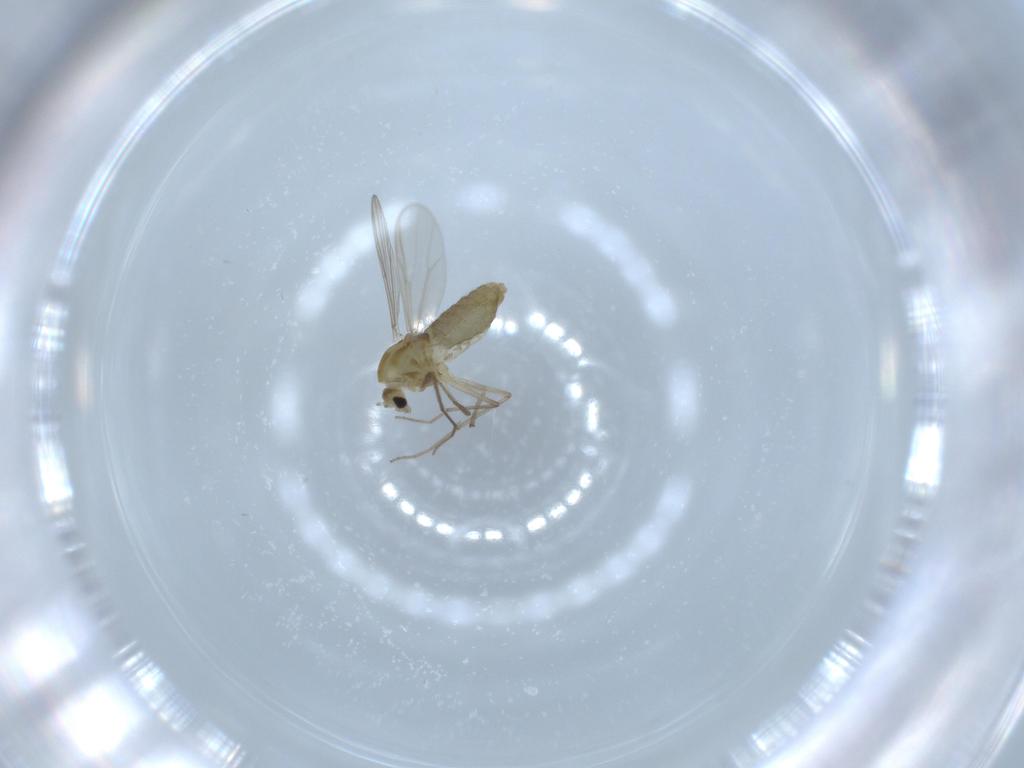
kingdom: Animalia
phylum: Arthropoda
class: Insecta
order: Diptera
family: Chironomidae
